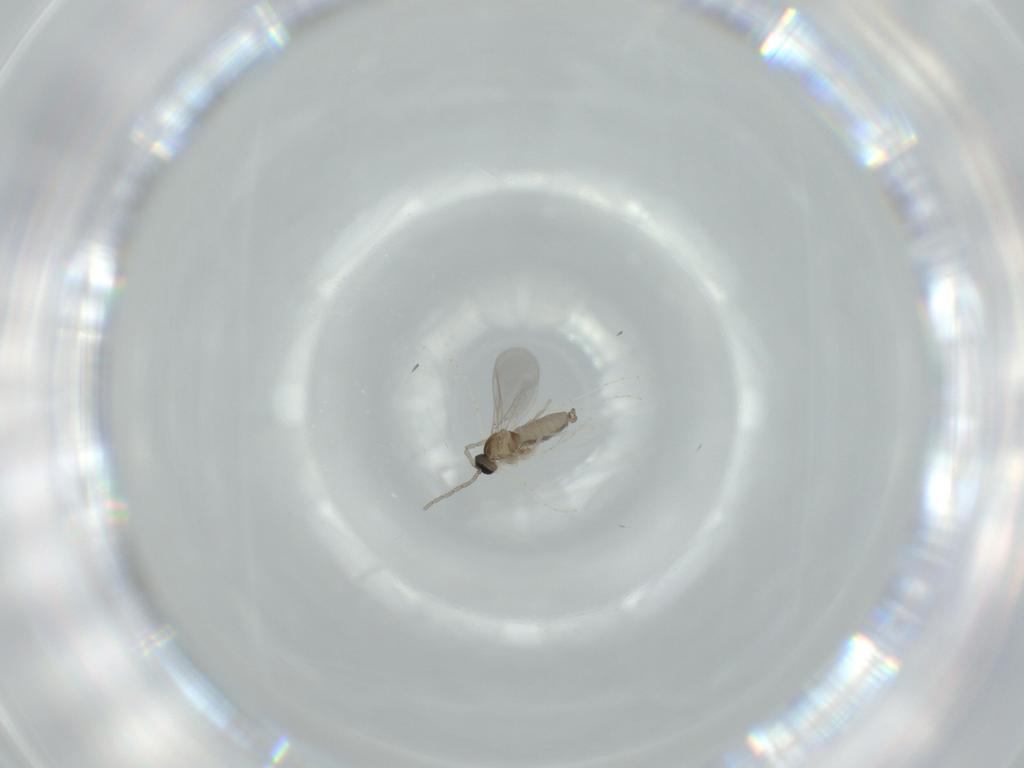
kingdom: Animalia
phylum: Arthropoda
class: Insecta
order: Diptera
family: Cecidomyiidae
